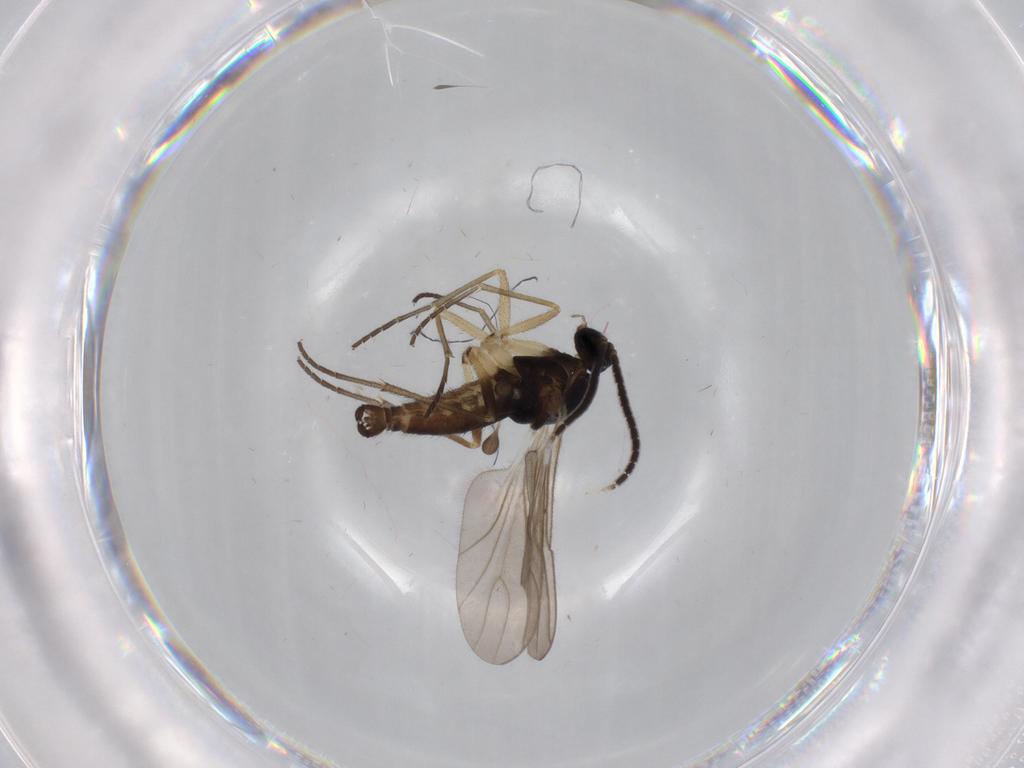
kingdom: Animalia
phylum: Arthropoda
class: Insecta
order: Diptera
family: Sciaridae
